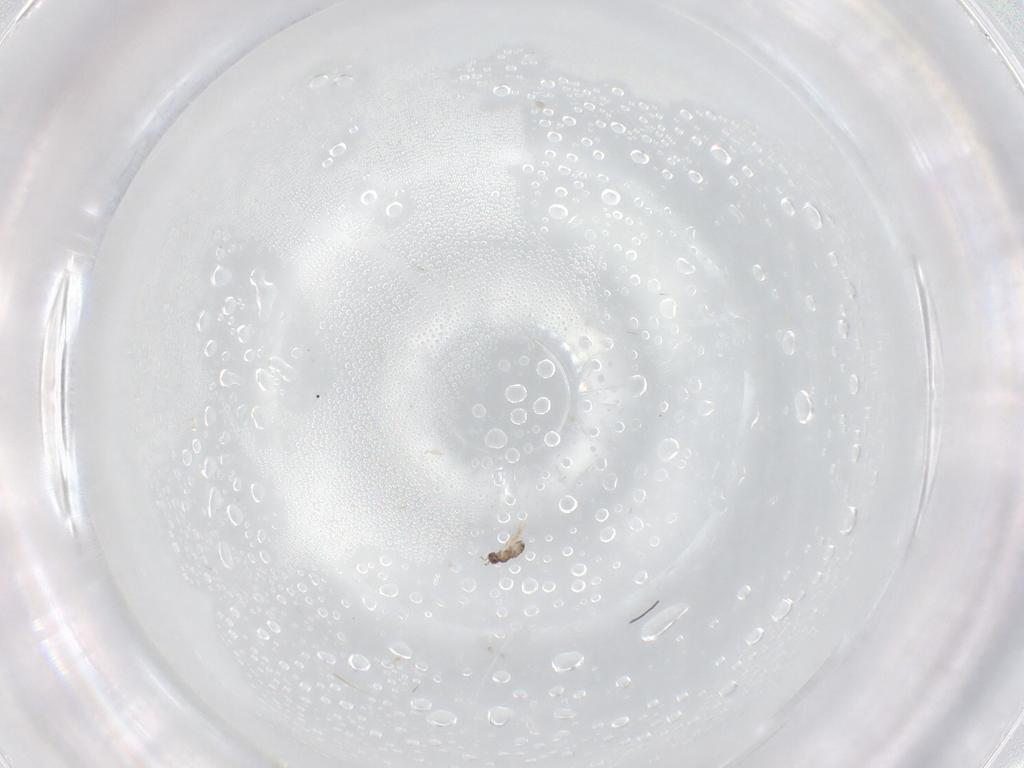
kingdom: Animalia
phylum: Arthropoda
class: Insecta
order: Hymenoptera
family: Mymaridae
